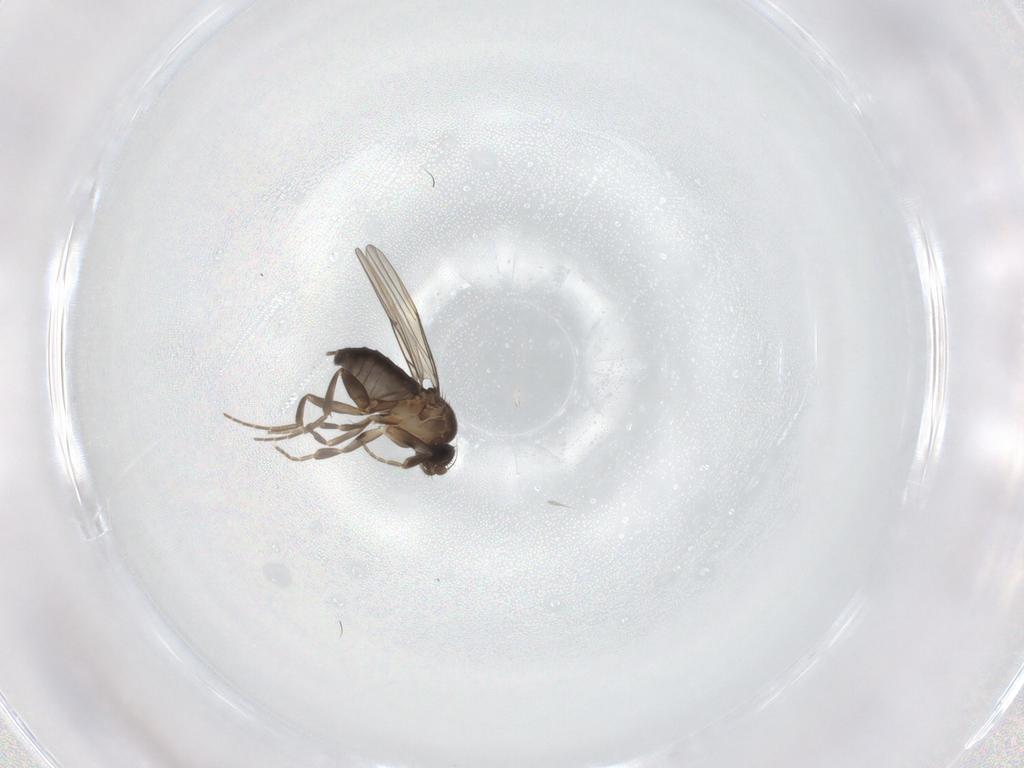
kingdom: Animalia
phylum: Arthropoda
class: Insecta
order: Diptera
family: Phoridae
